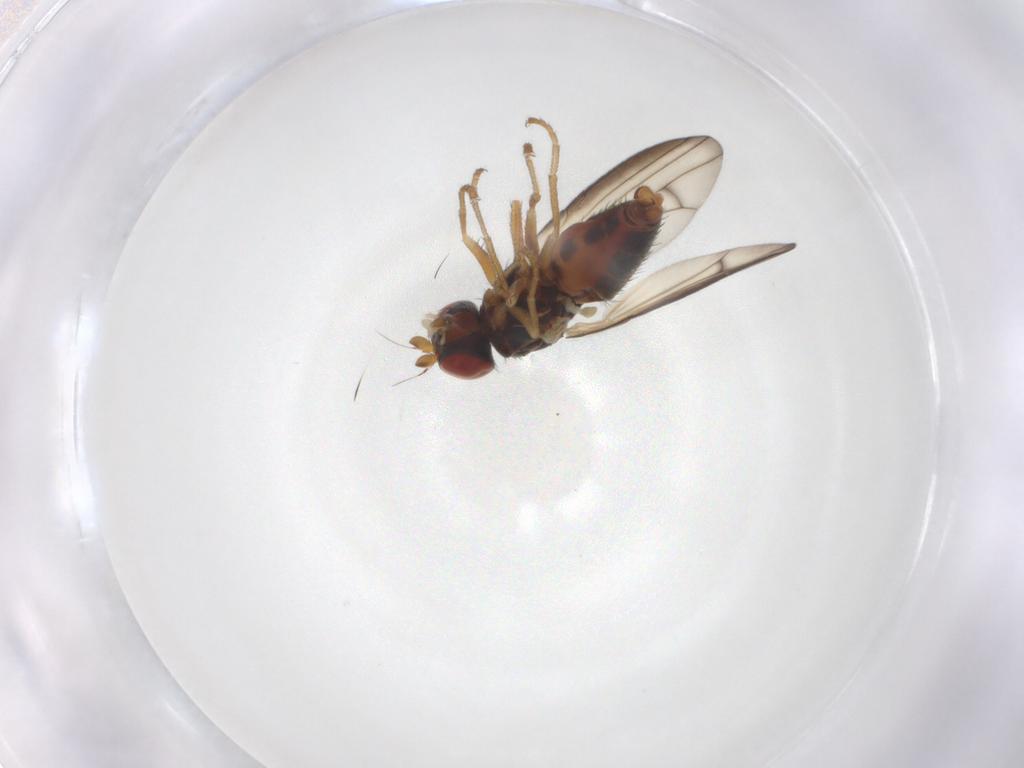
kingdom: Animalia
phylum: Arthropoda
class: Insecta
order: Diptera
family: Chamaemyiidae
